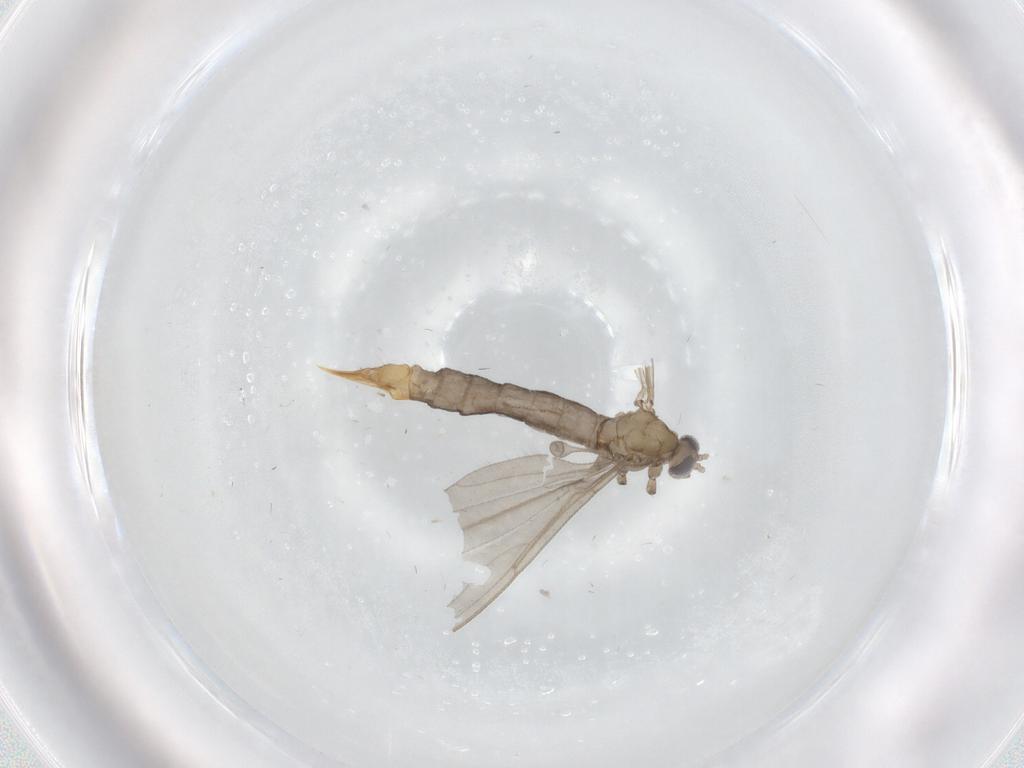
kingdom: Animalia
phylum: Arthropoda
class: Insecta
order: Diptera
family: Limoniidae
